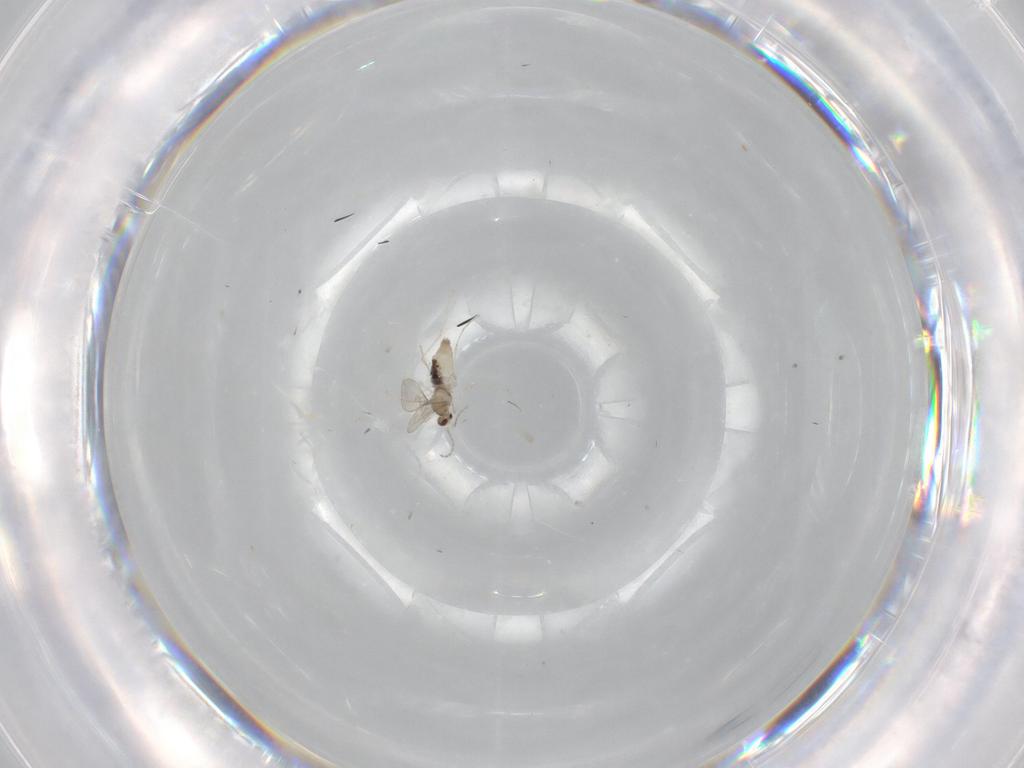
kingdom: Animalia
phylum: Arthropoda
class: Insecta
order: Diptera
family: Cecidomyiidae
